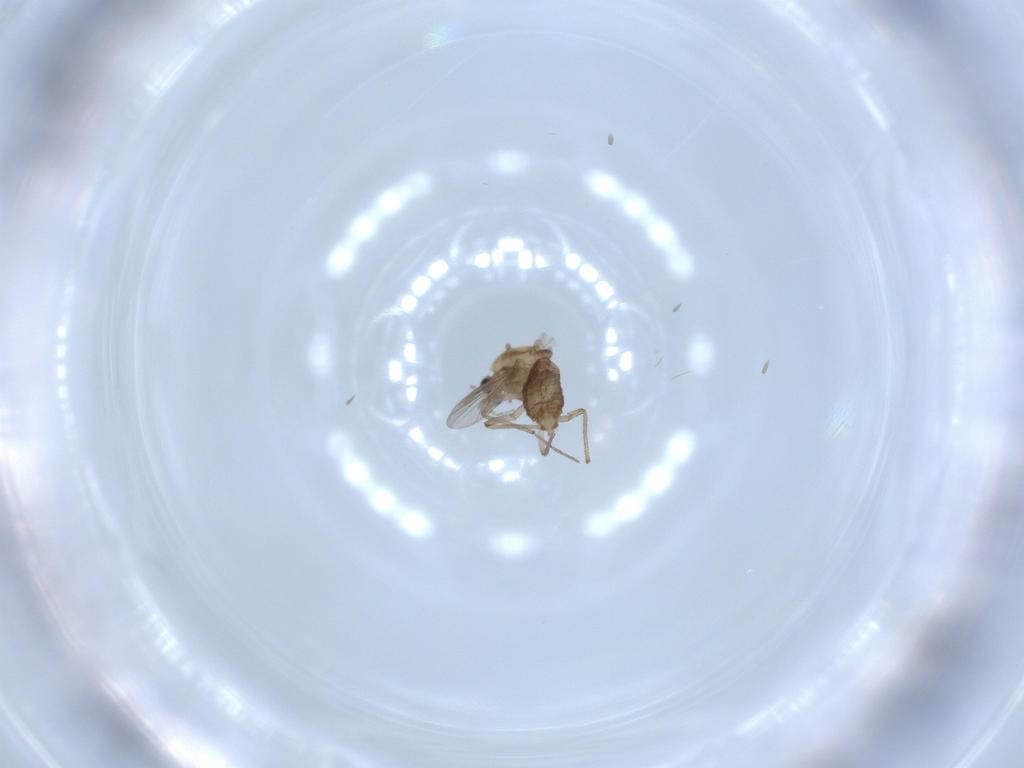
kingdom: Animalia
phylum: Arthropoda
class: Insecta
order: Diptera
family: Chironomidae
